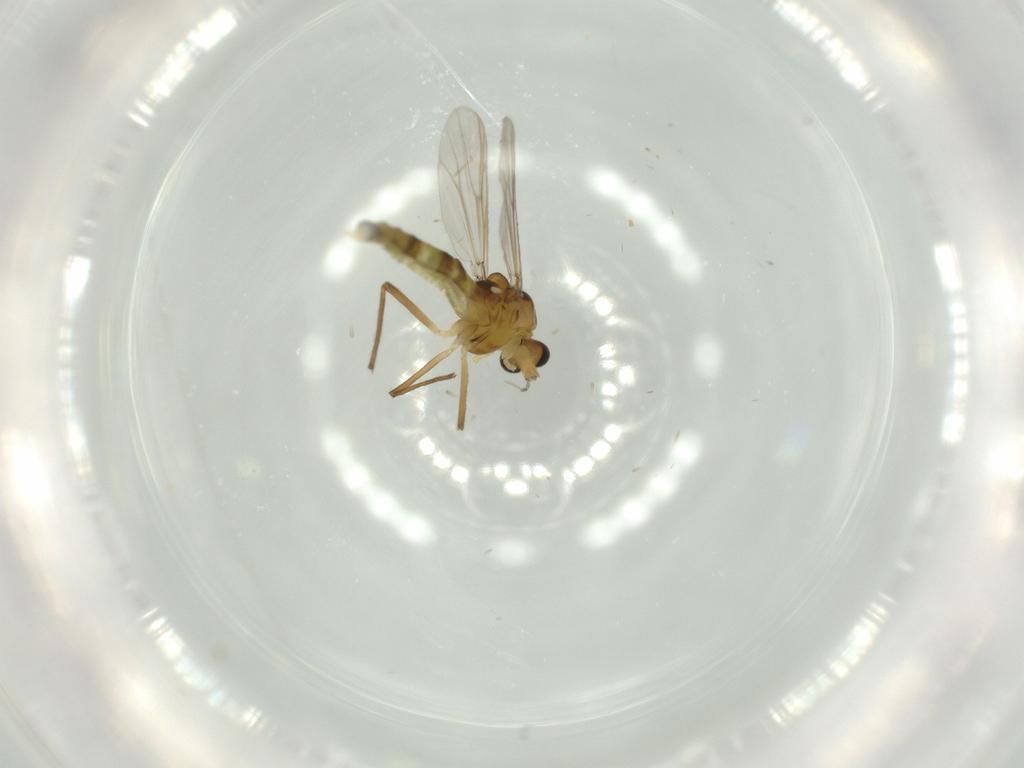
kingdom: Animalia
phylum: Arthropoda
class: Insecta
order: Diptera
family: Chironomidae
